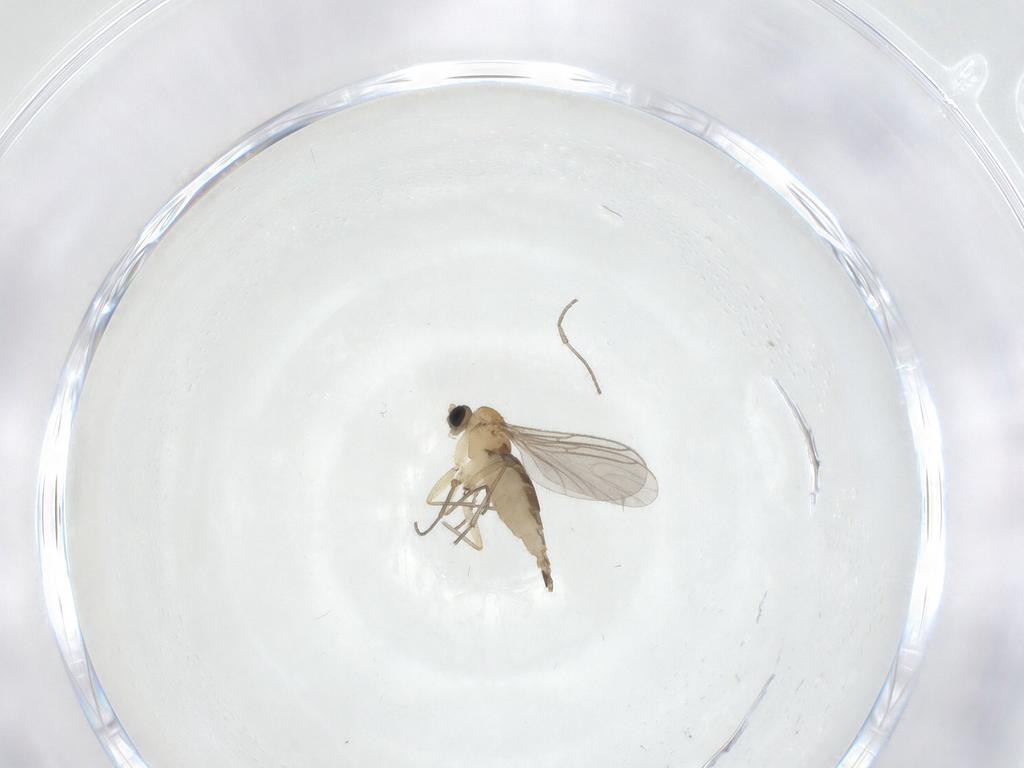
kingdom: Animalia
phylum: Arthropoda
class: Insecta
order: Diptera
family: Sciaridae
